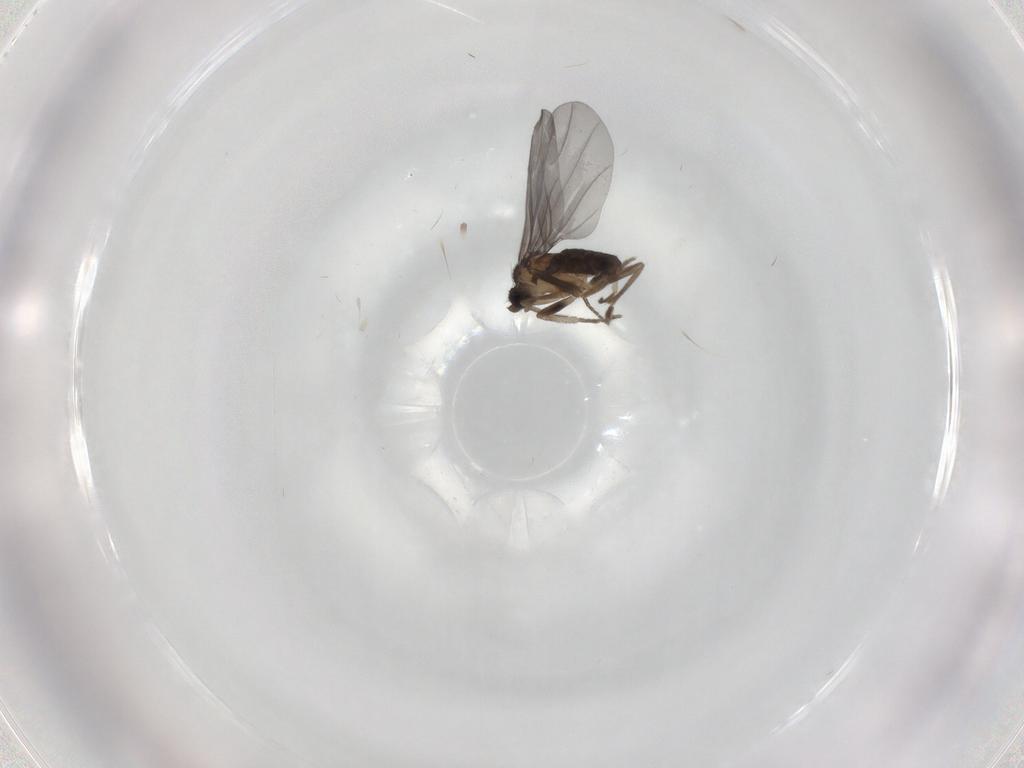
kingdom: Animalia
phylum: Arthropoda
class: Insecta
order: Diptera
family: Phoridae
